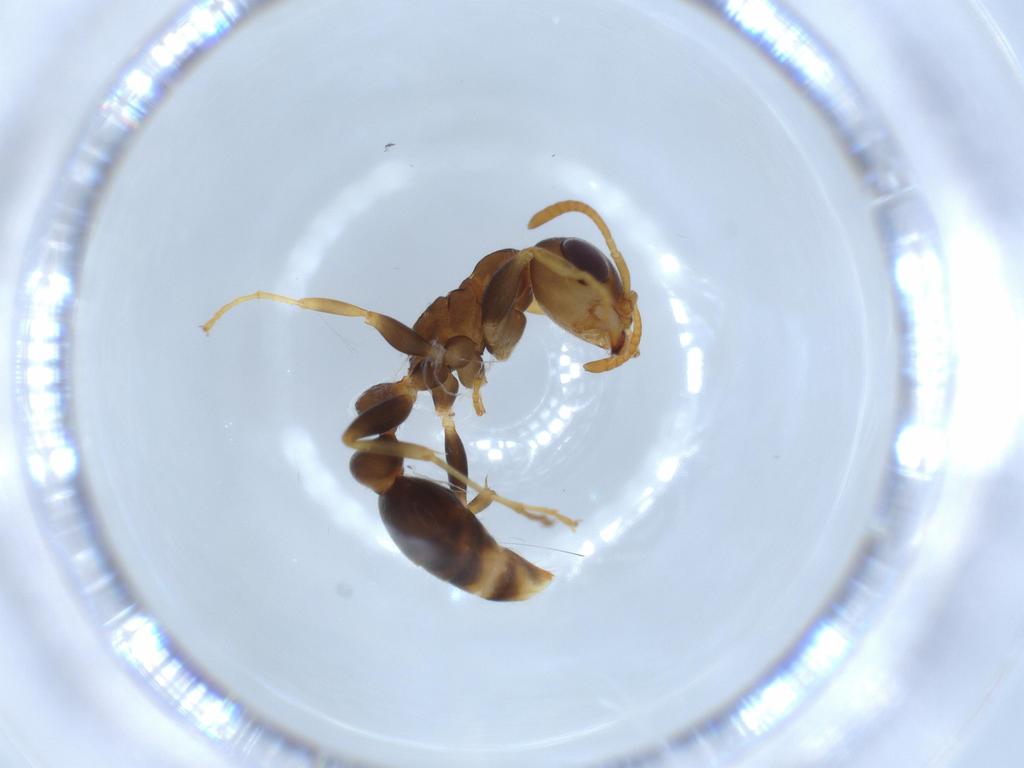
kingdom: Animalia
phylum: Arthropoda
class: Insecta
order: Hymenoptera
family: Formicidae
